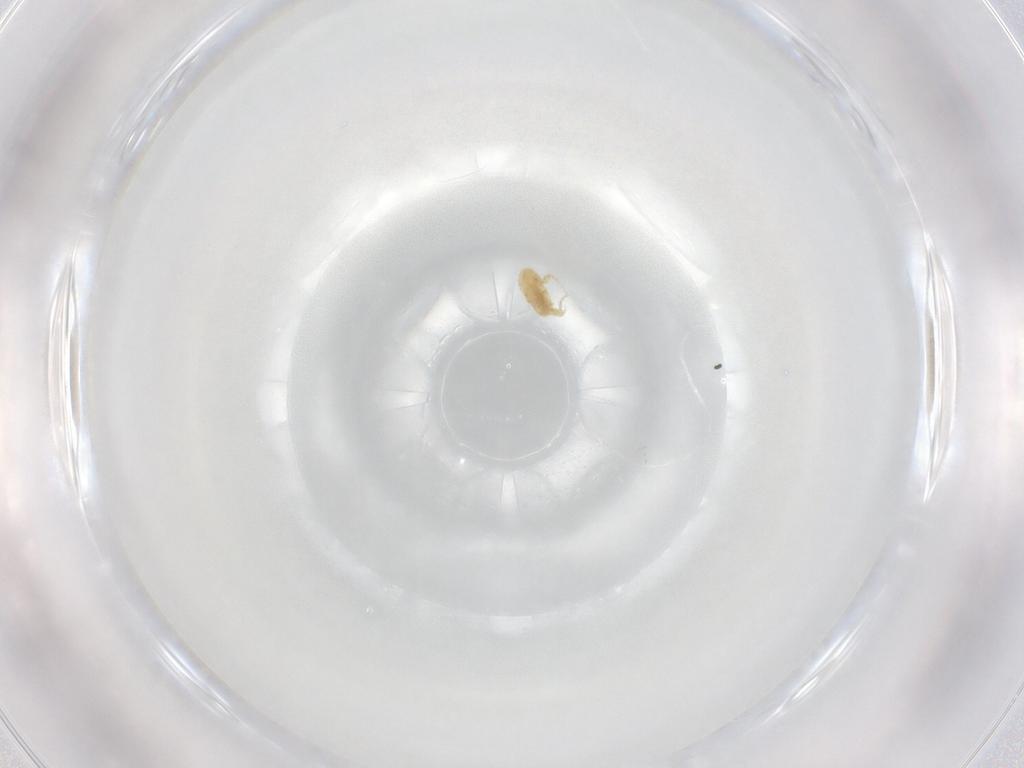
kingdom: Animalia
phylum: Arthropoda
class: Arachnida
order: Trombidiformes
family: Eupodidae
